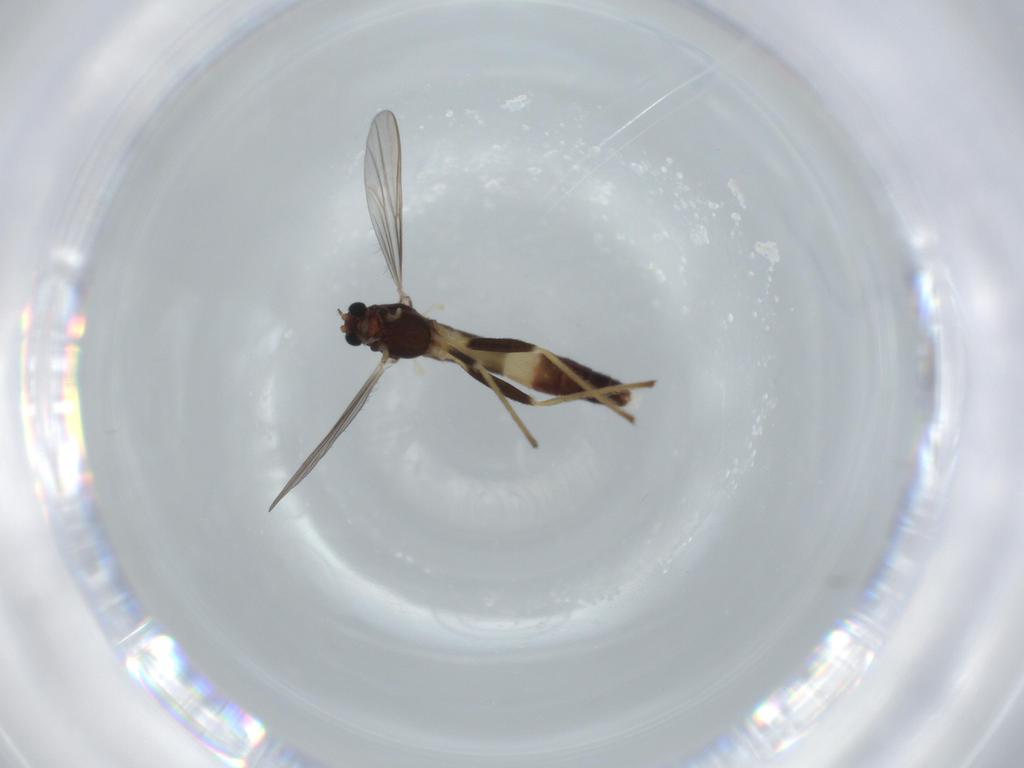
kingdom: Animalia
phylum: Arthropoda
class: Insecta
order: Diptera
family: Chironomidae
